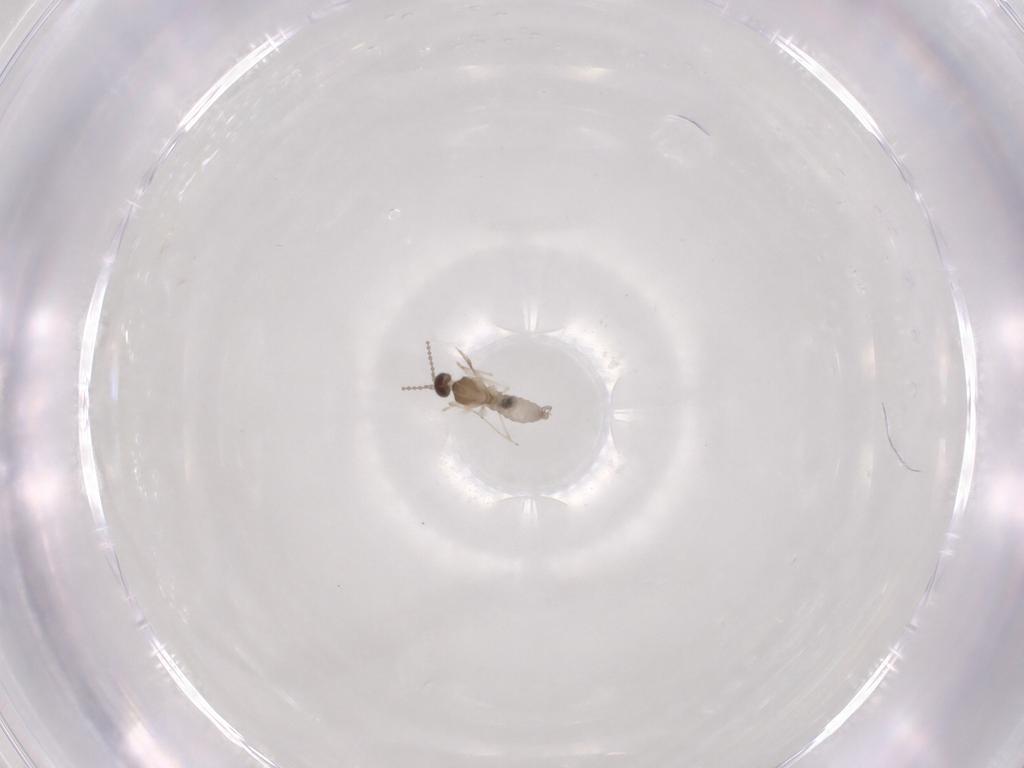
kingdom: Animalia
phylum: Arthropoda
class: Insecta
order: Diptera
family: Cecidomyiidae
